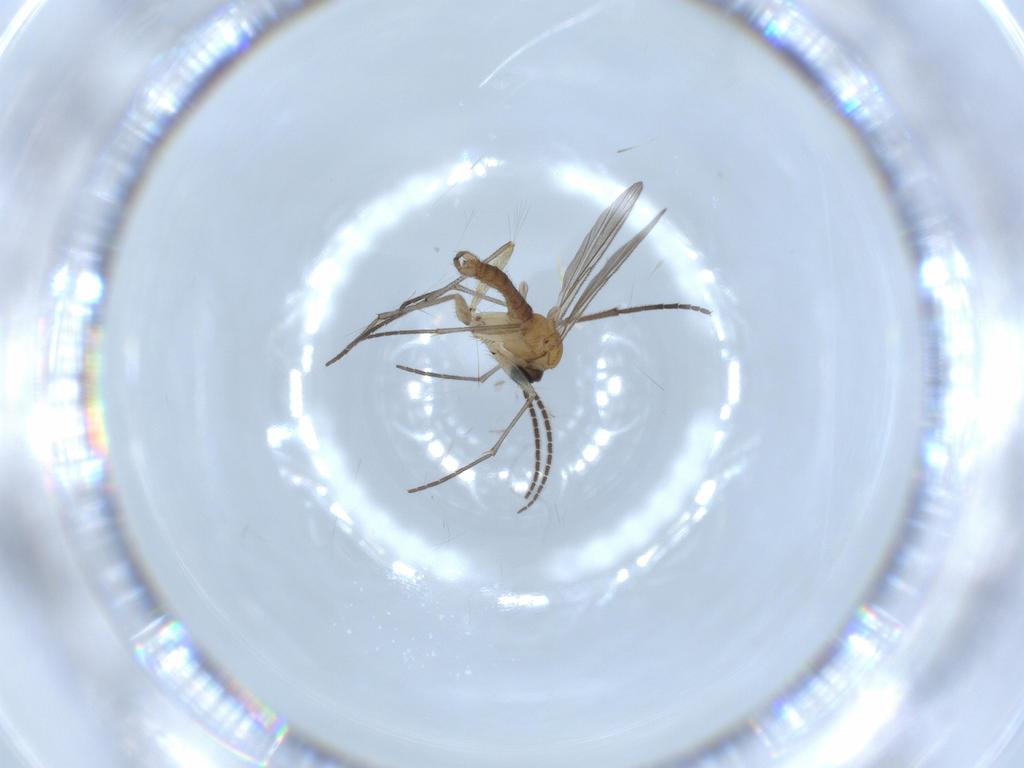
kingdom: Animalia
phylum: Arthropoda
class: Insecta
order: Diptera
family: Sciaridae
